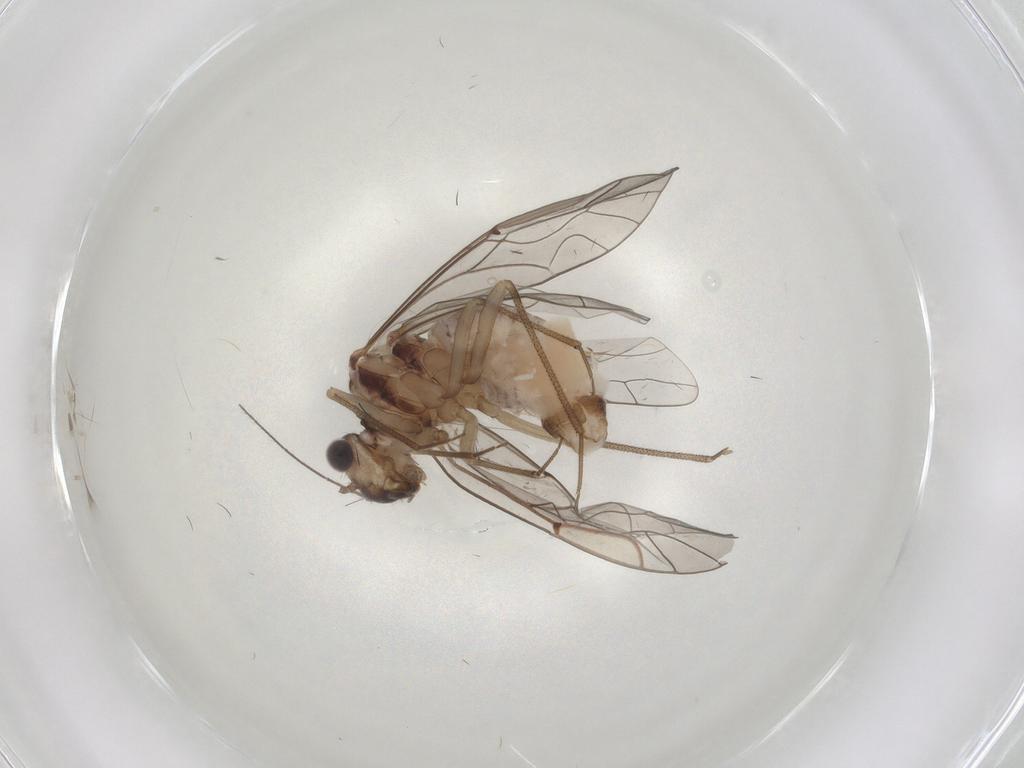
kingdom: Animalia
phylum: Arthropoda
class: Insecta
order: Psocodea
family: Lachesillidae
